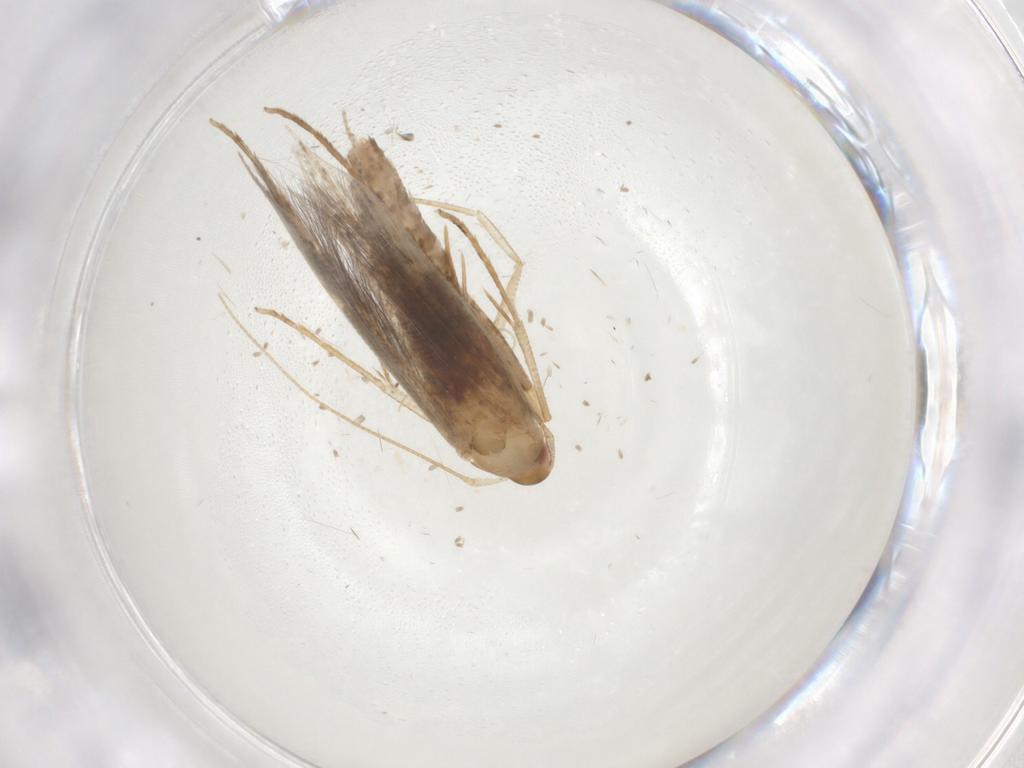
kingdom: Animalia
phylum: Arthropoda
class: Insecta
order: Lepidoptera
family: Cosmopterigidae
